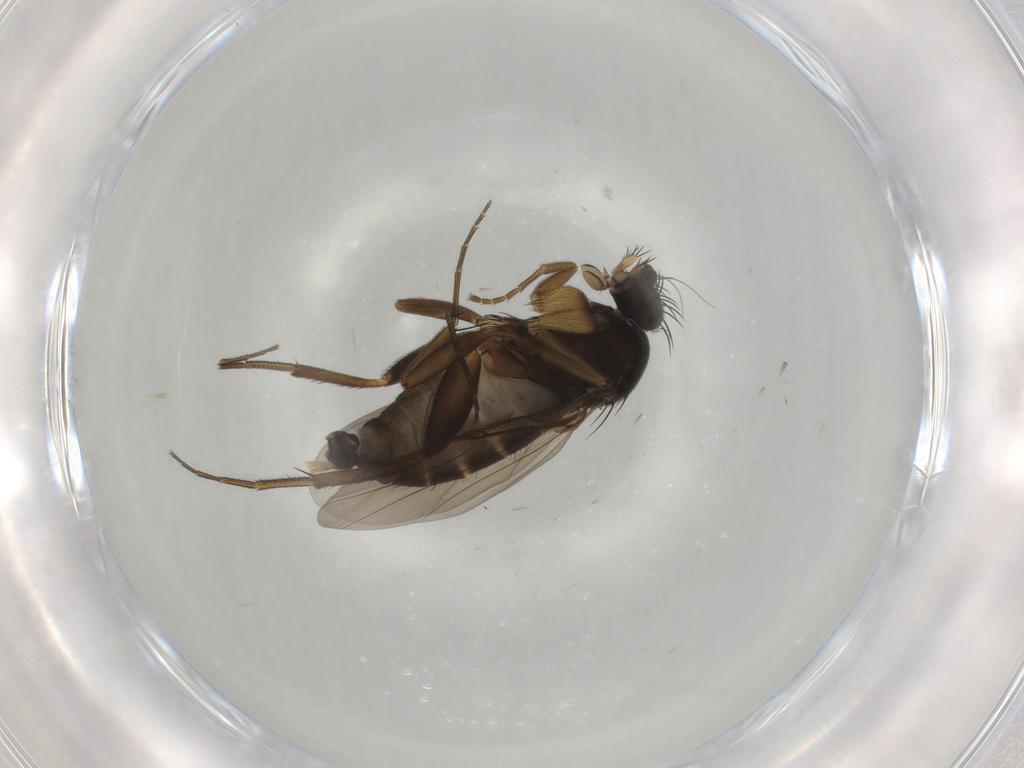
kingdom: Animalia
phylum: Arthropoda
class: Insecta
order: Diptera
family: Phoridae
